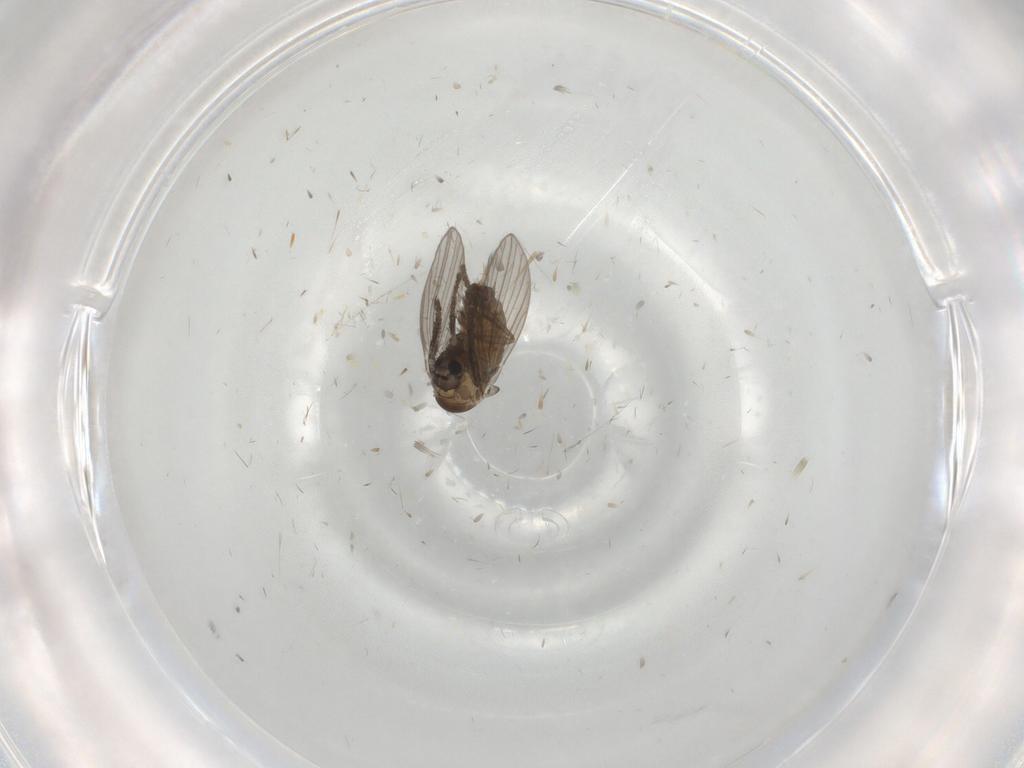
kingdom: Animalia
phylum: Arthropoda
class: Insecta
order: Diptera
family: Psychodidae
